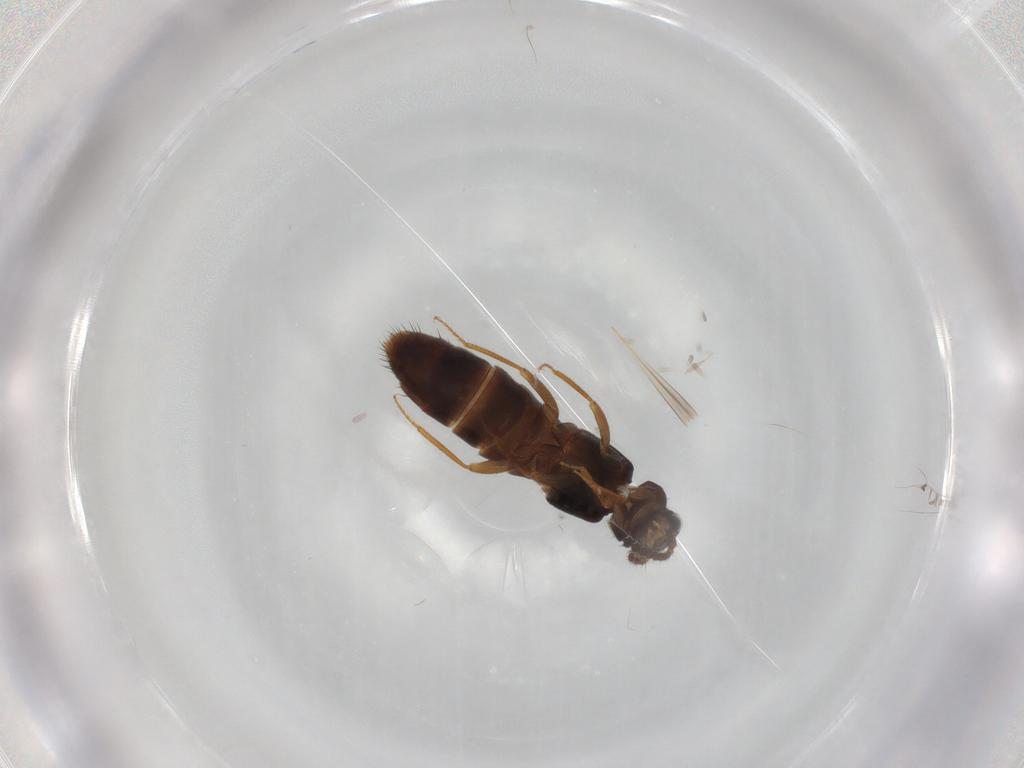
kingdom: Animalia
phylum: Arthropoda
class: Insecta
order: Coleoptera
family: Staphylinidae
